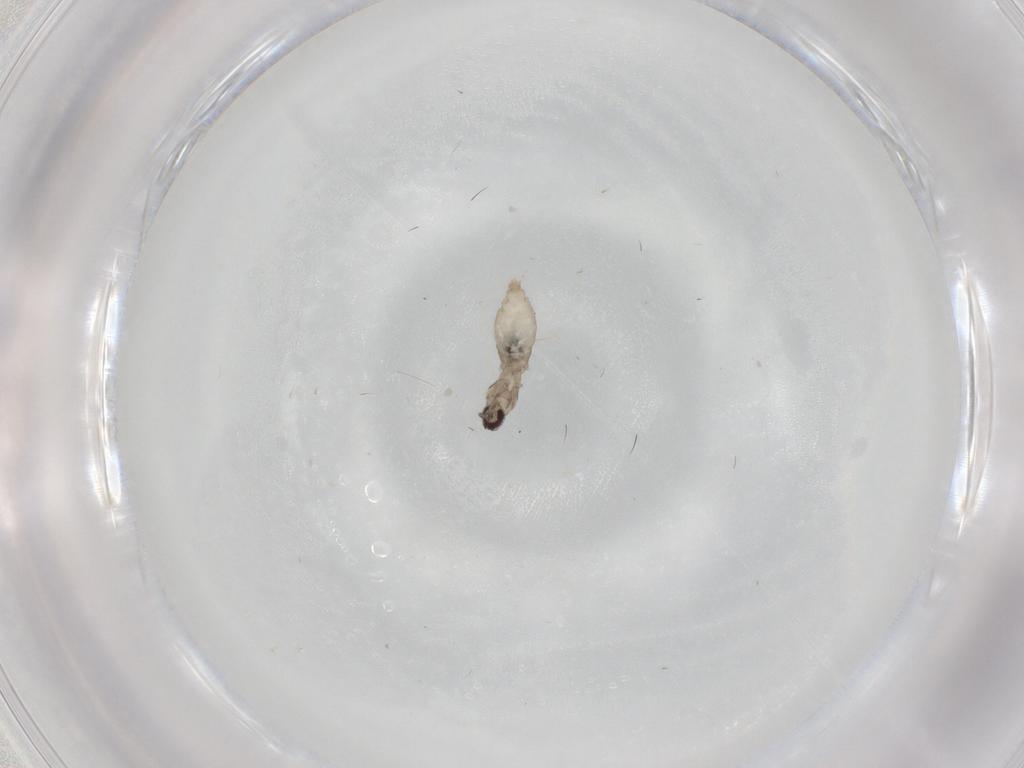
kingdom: Animalia
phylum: Arthropoda
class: Insecta
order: Diptera
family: Cecidomyiidae
